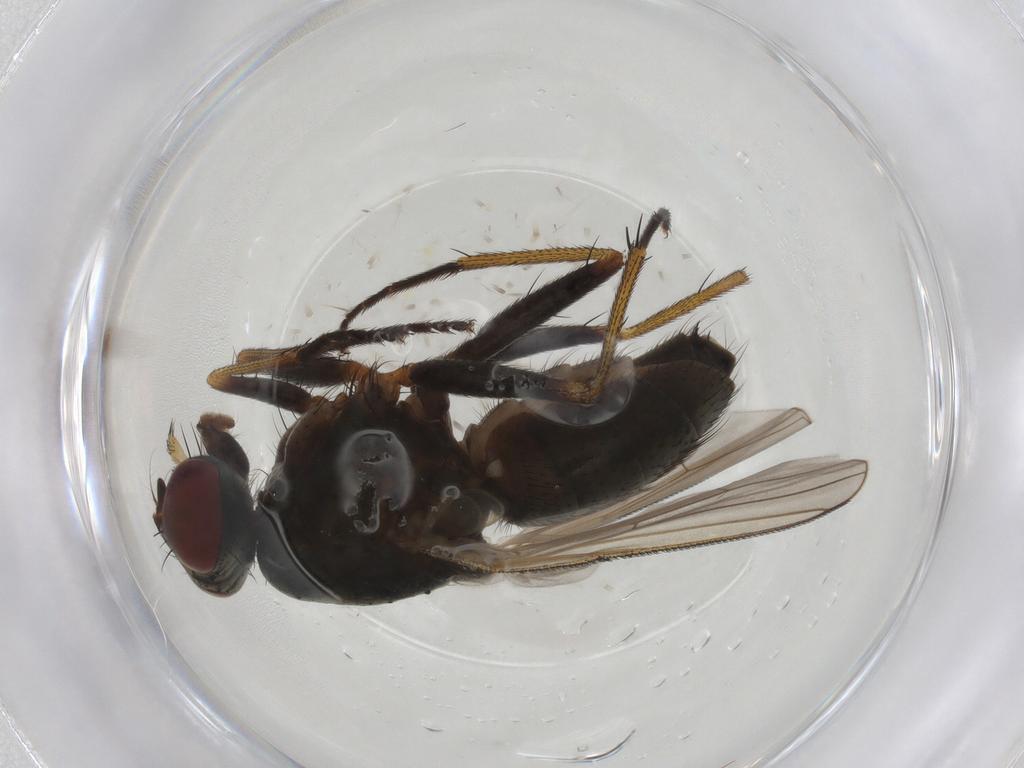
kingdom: Animalia
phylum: Arthropoda
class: Insecta
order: Diptera
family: Muscidae
